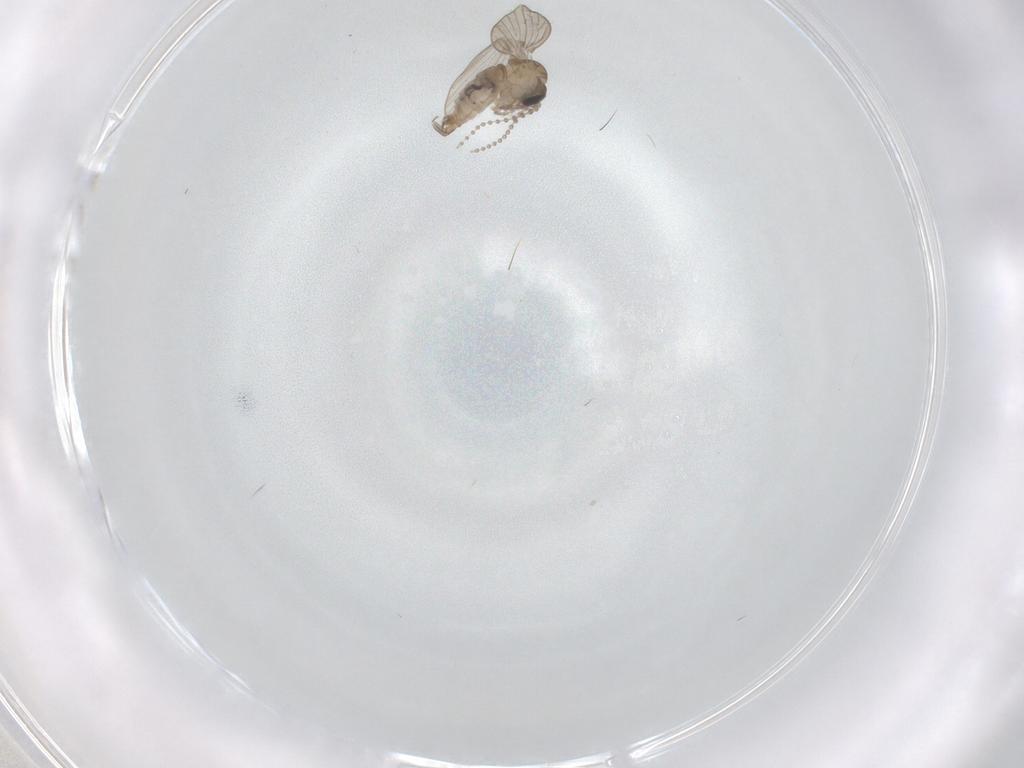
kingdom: Animalia
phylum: Arthropoda
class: Insecta
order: Diptera
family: Psychodidae
